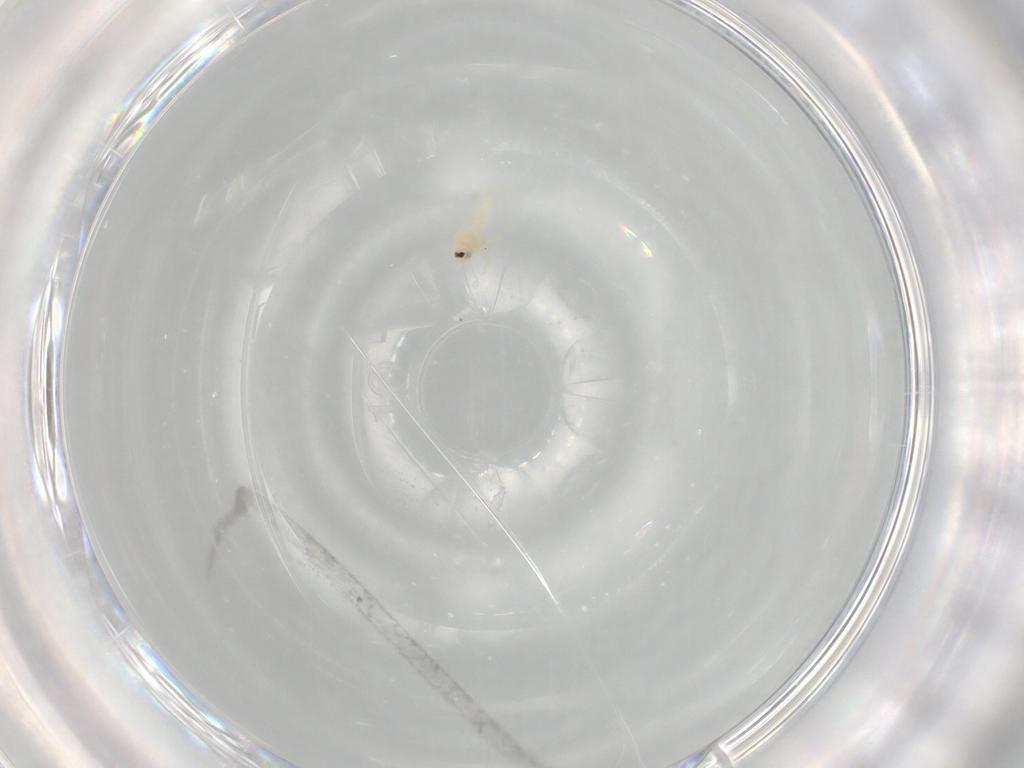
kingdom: Animalia
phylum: Arthropoda
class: Insecta
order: Hemiptera
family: Aleyrodidae
